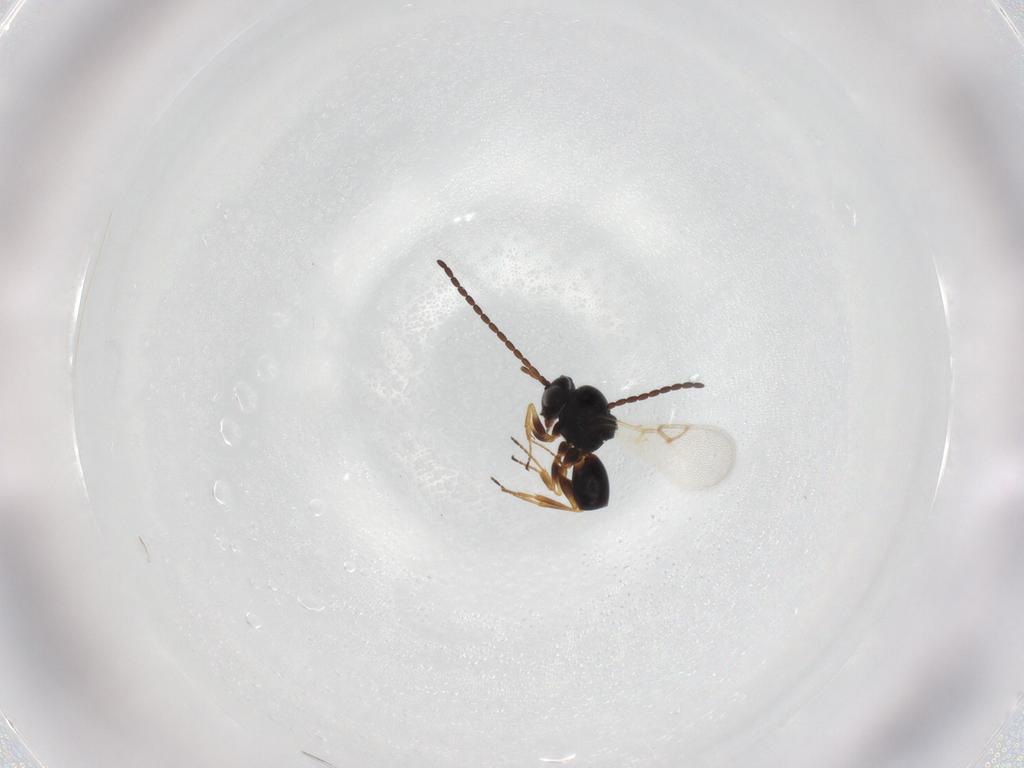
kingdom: Animalia
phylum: Arthropoda
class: Insecta
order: Hymenoptera
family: Figitidae
